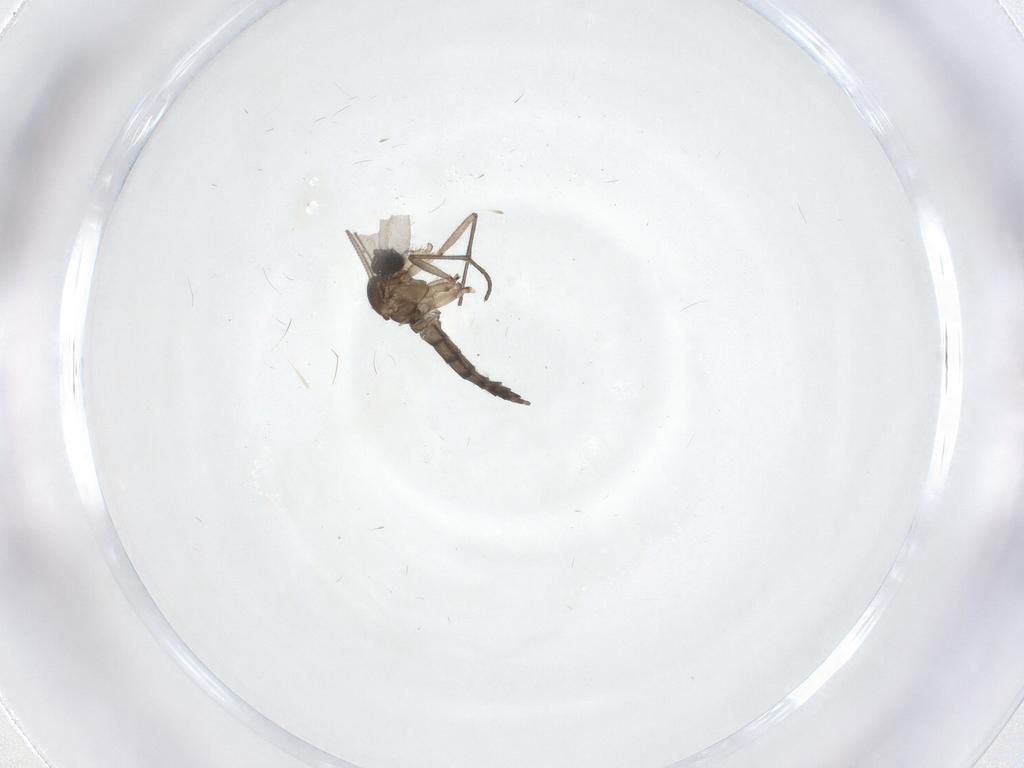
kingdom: Animalia
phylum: Arthropoda
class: Insecta
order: Diptera
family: Sciaridae
